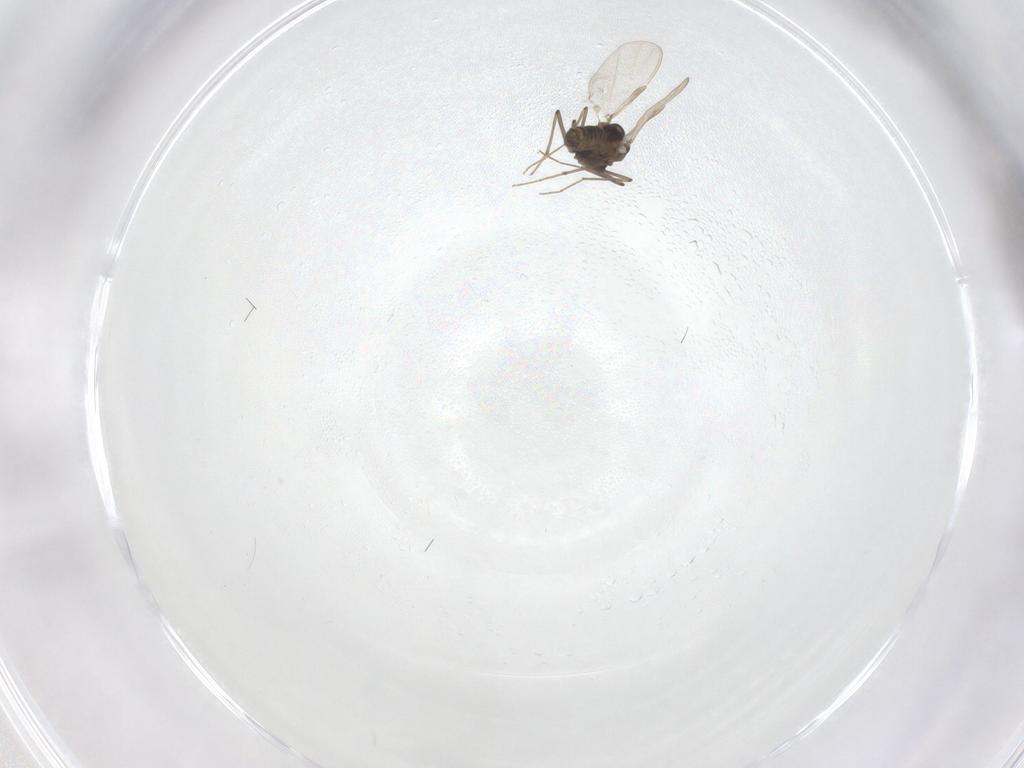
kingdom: Animalia
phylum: Arthropoda
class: Insecta
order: Diptera
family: Chironomidae
